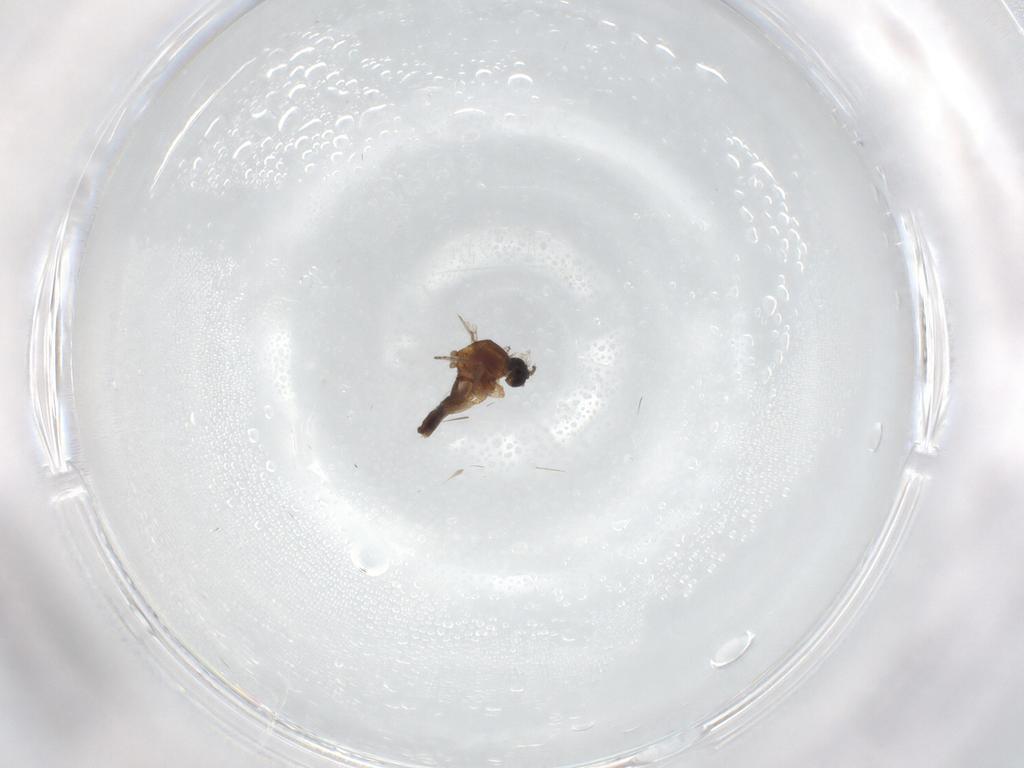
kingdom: Animalia
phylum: Arthropoda
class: Insecta
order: Diptera
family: Ceratopogonidae
